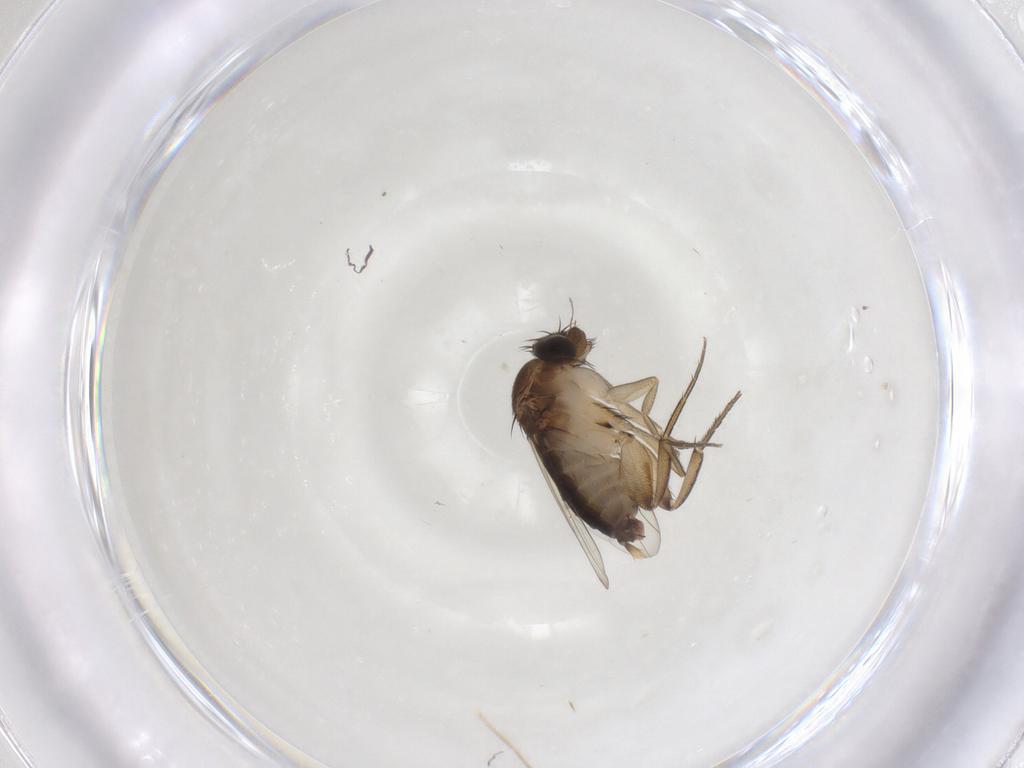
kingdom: Animalia
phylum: Arthropoda
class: Insecta
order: Diptera
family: Phoridae
